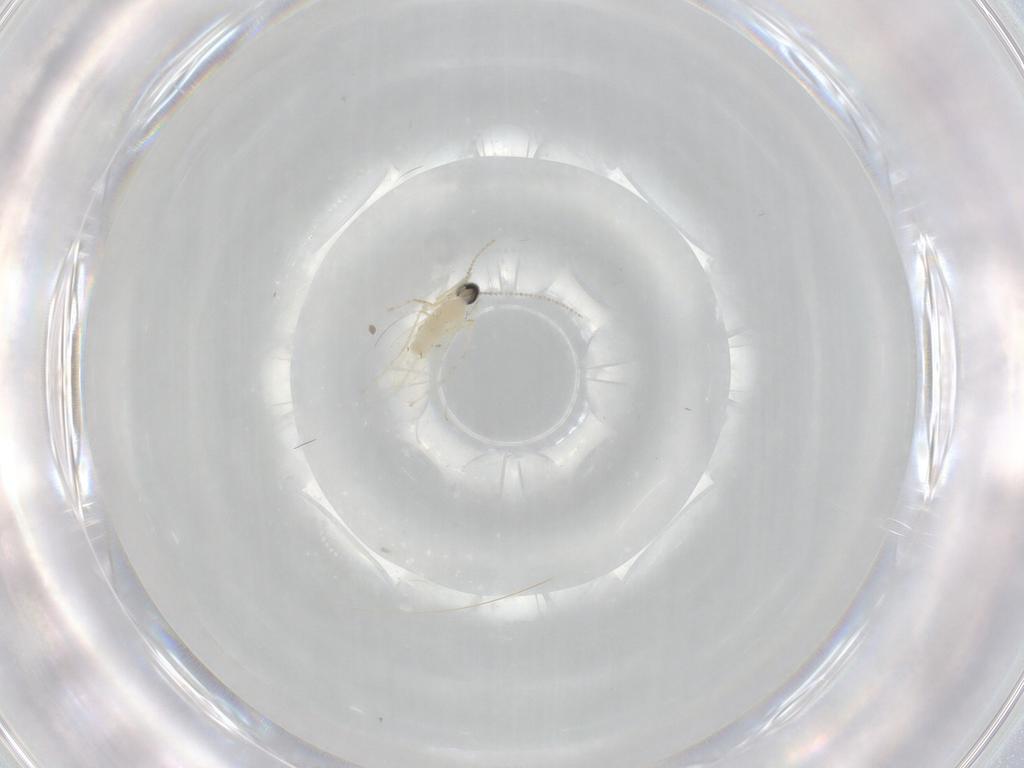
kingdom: Animalia
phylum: Arthropoda
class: Insecta
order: Diptera
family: Cecidomyiidae
